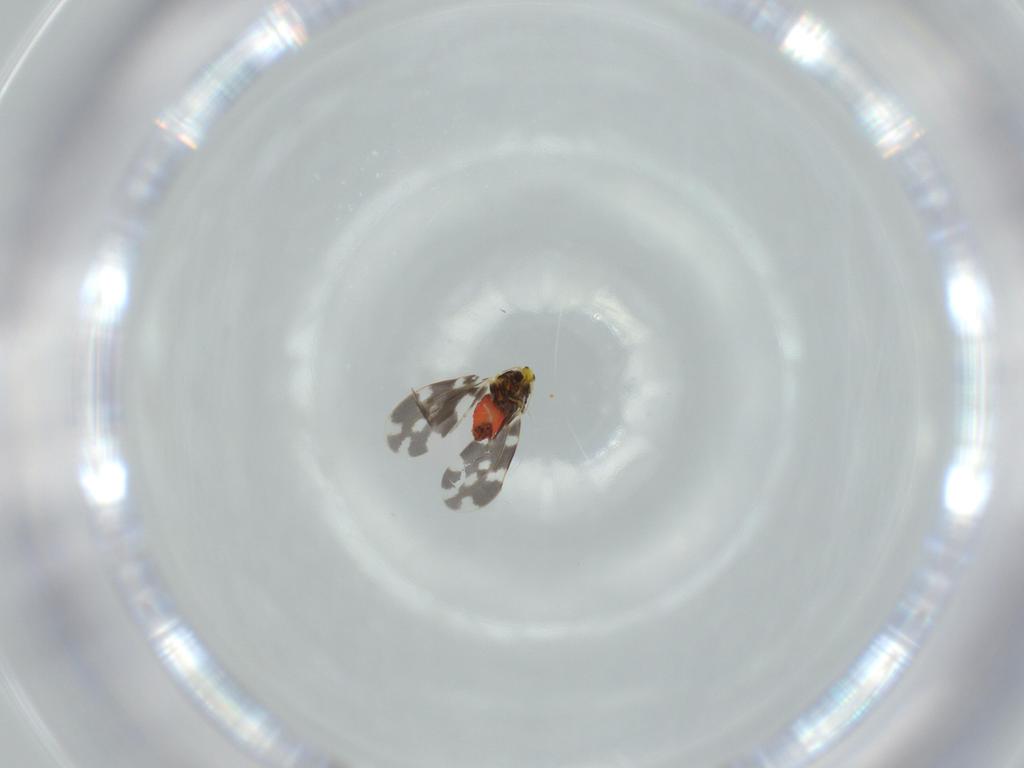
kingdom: Animalia
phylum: Arthropoda
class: Insecta
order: Hemiptera
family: Aleyrodidae
